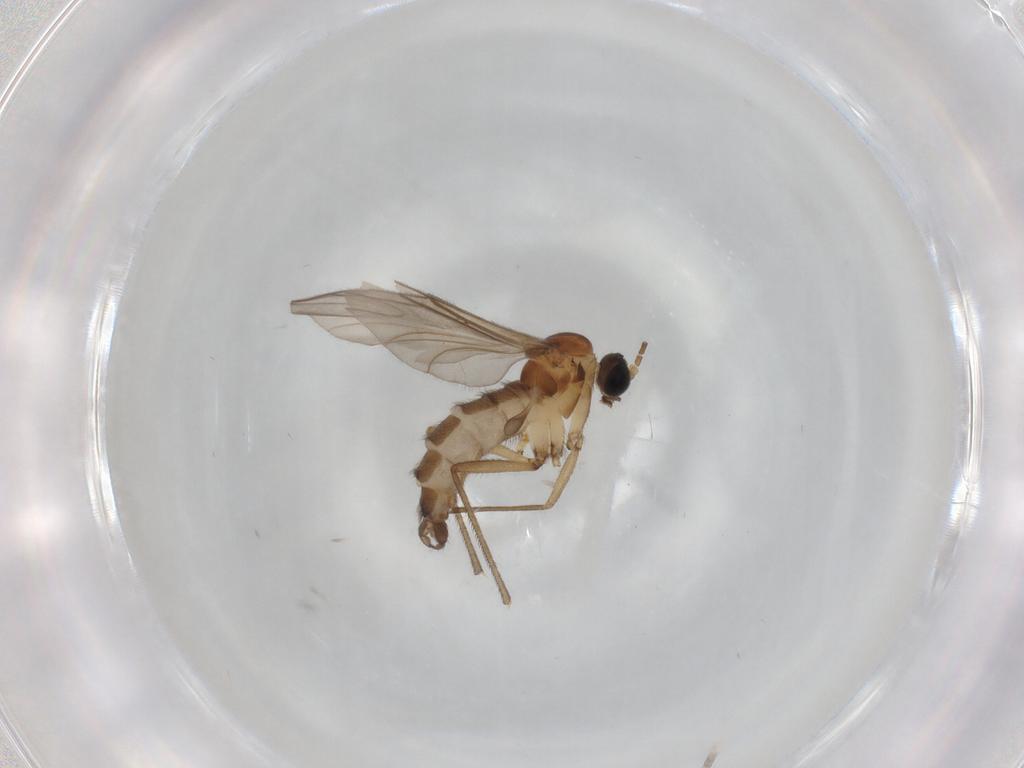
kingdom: Animalia
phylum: Arthropoda
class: Insecta
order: Diptera
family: Sciaridae
